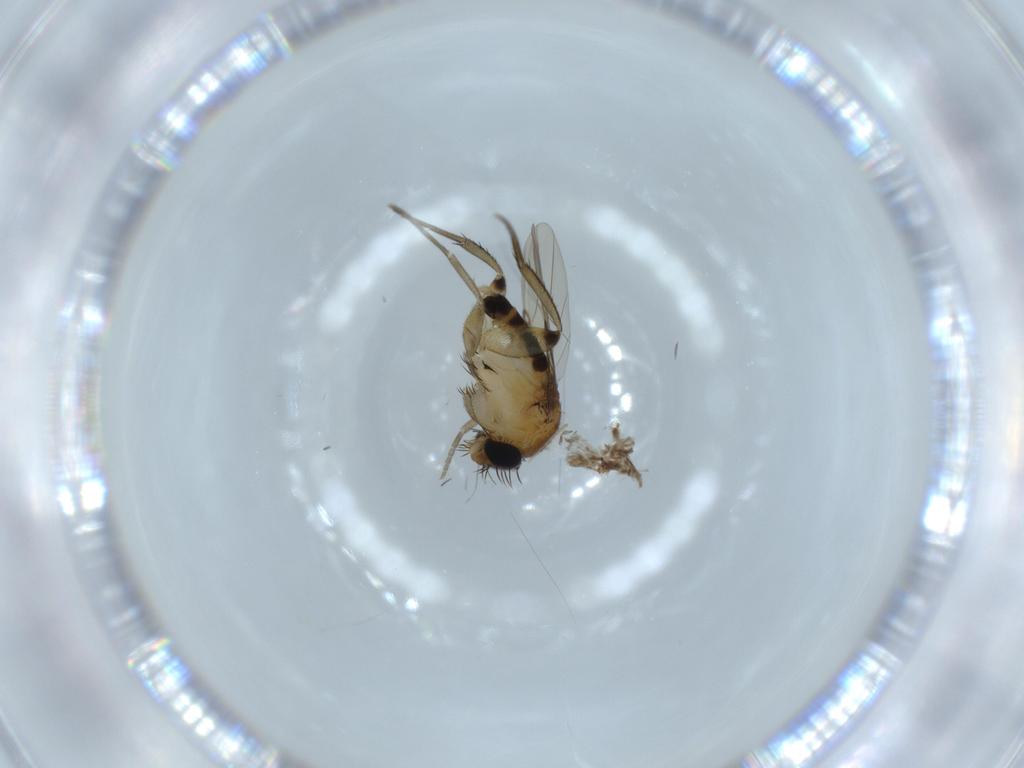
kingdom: Animalia
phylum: Arthropoda
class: Insecta
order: Diptera
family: Phoridae
